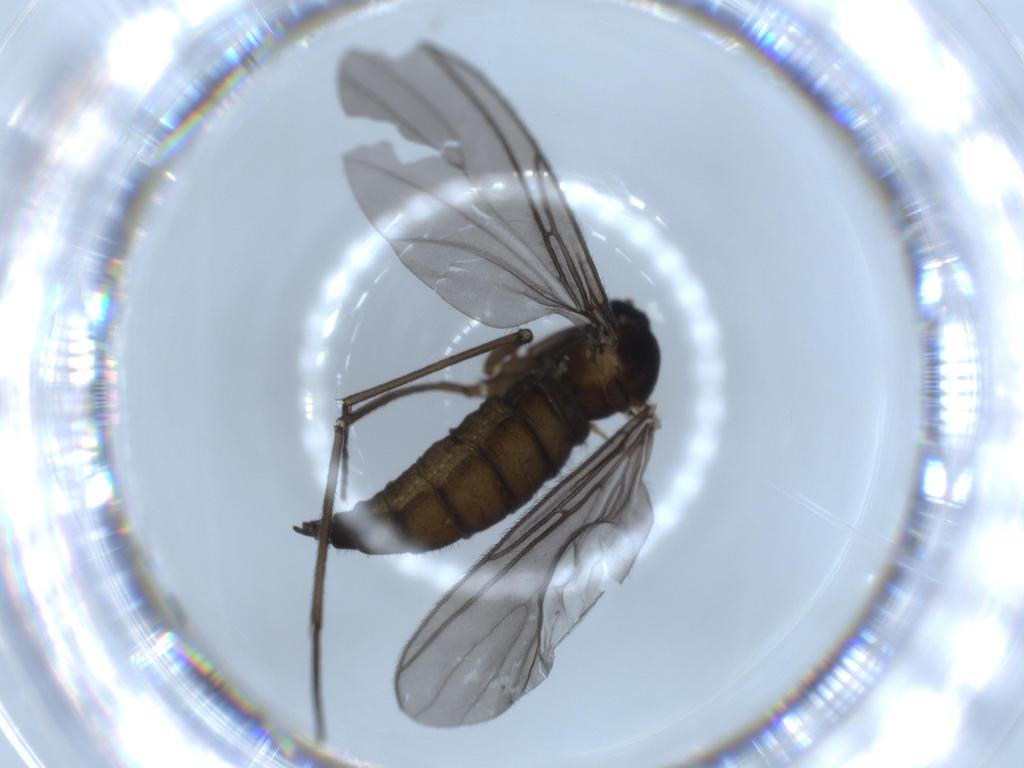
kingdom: Animalia
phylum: Arthropoda
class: Insecta
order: Diptera
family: Sciaridae
